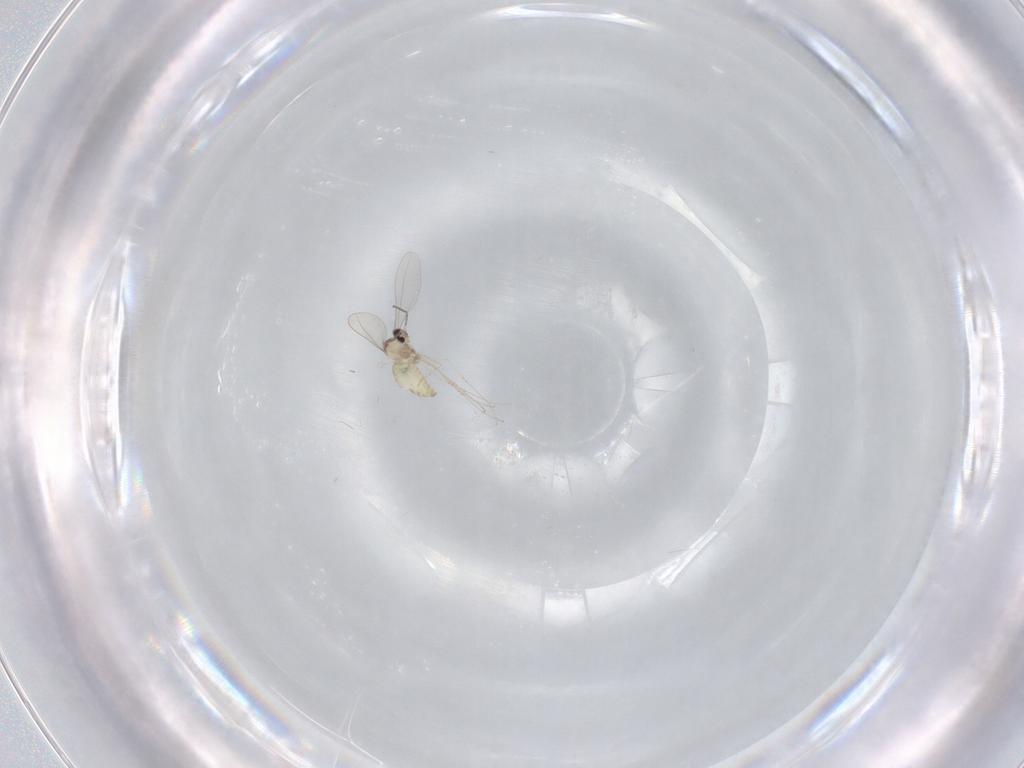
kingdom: Animalia
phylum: Arthropoda
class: Insecta
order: Diptera
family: Cecidomyiidae
